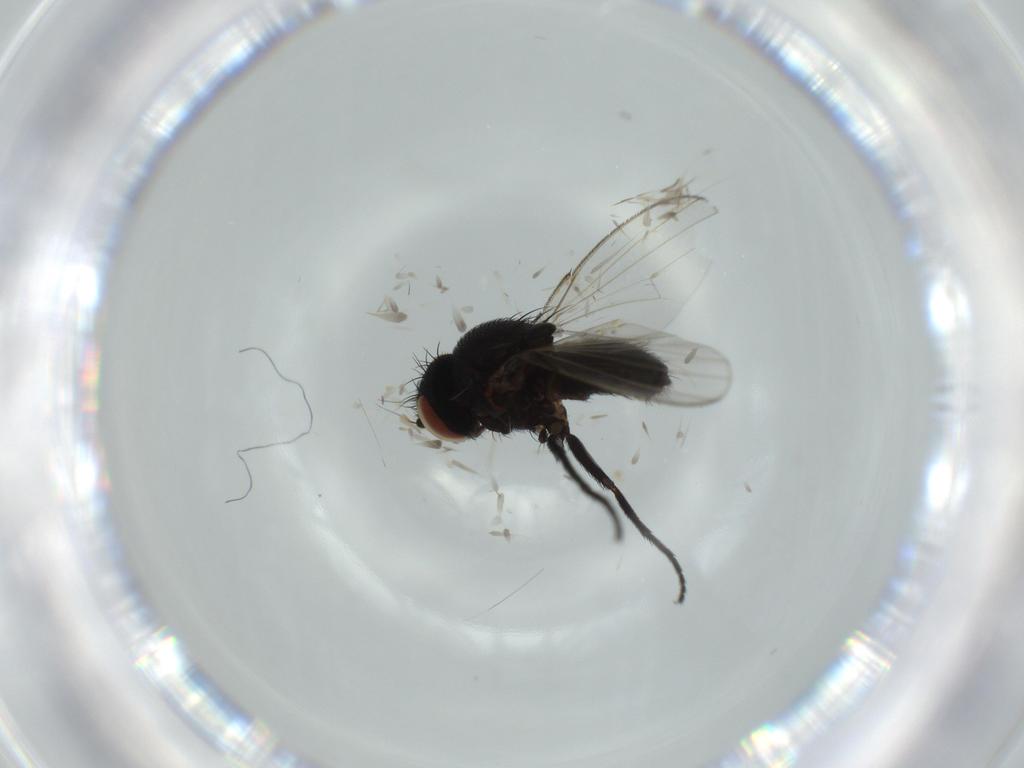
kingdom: Animalia
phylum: Arthropoda
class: Insecta
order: Diptera
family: Milichiidae
